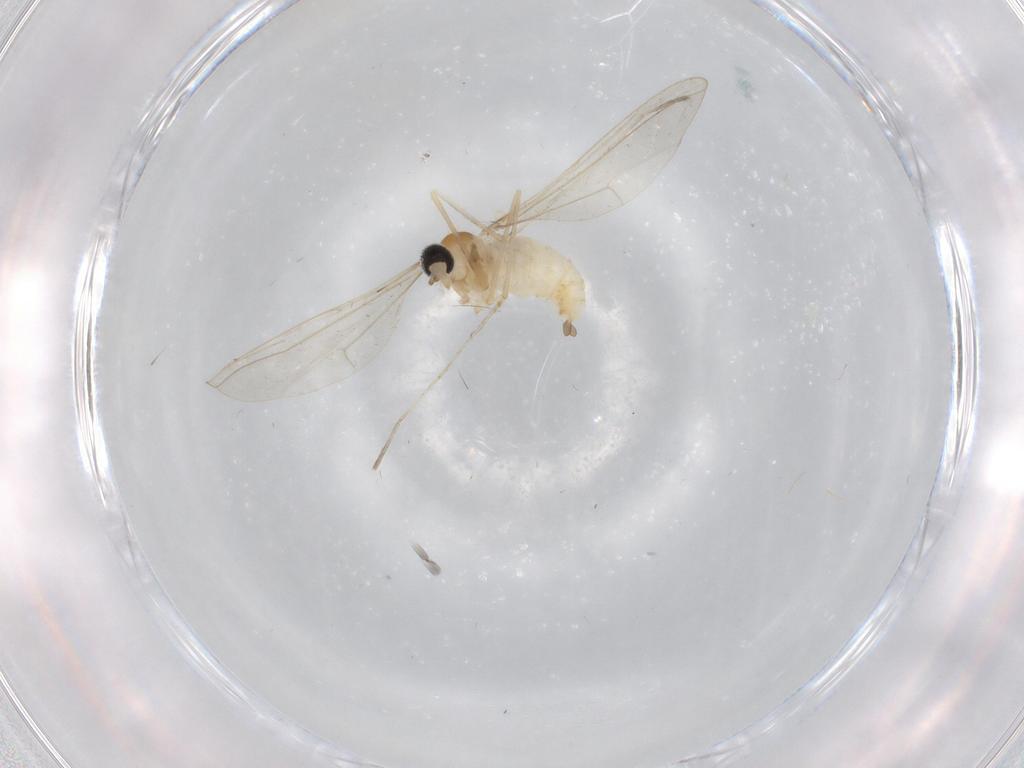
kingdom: Animalia
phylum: Arthropoda
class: Insecta
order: Diptera
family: Cecidomyiidae
